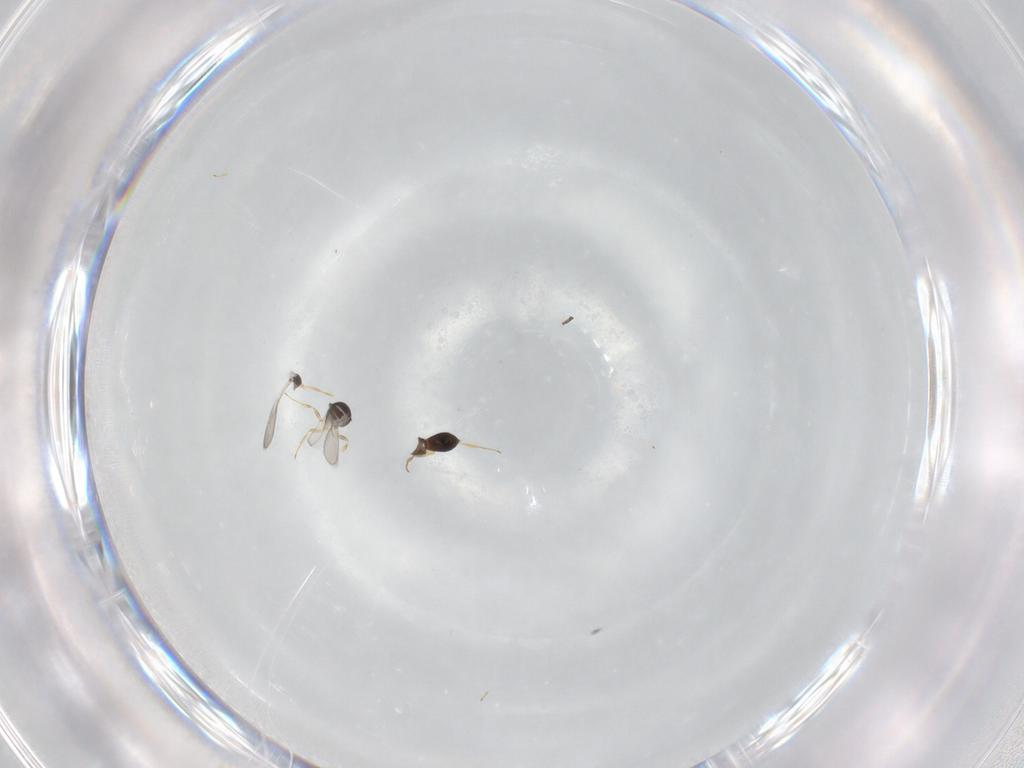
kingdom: Animalia
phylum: Arthropoda
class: Insecta
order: Hymenoptera
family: Scelionidae
